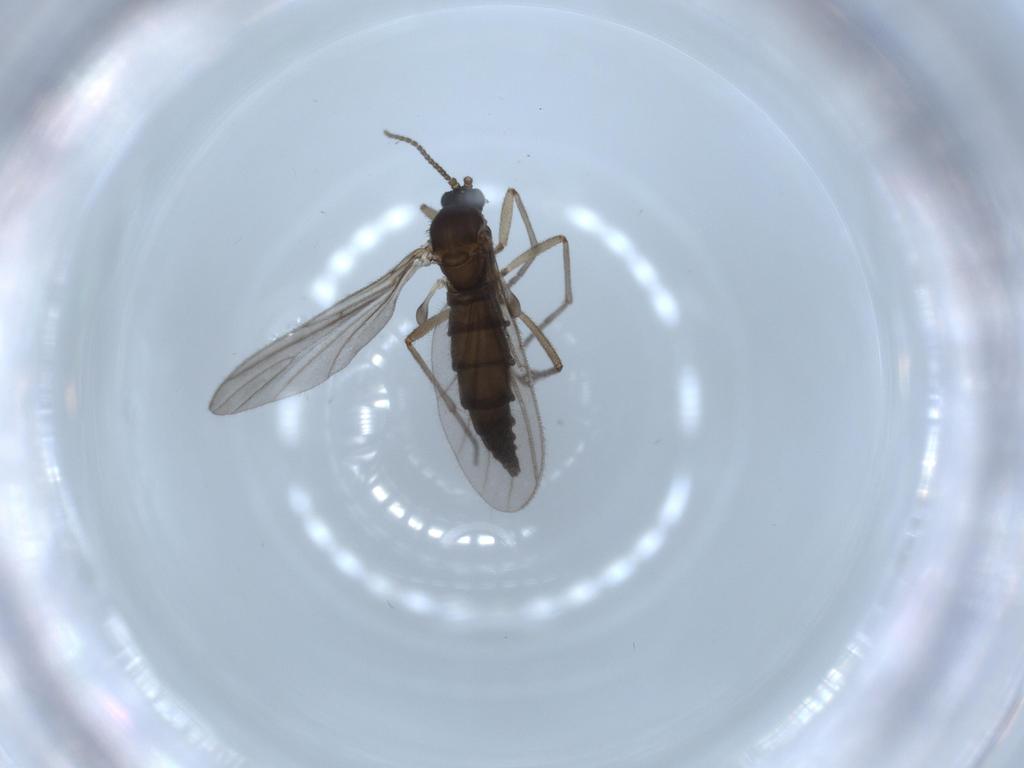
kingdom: Animalia
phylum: Arthropoda
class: Insecta
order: Diptera
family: Sciaridae
